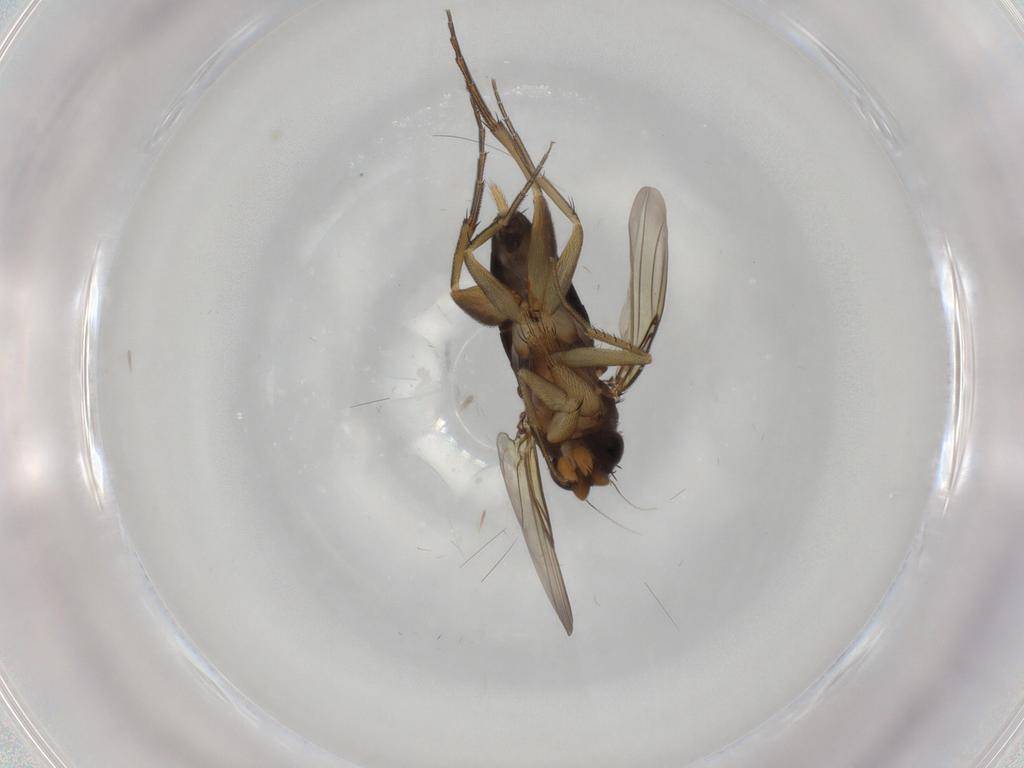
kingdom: Animalia
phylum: Arthropoda
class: Insecta
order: Diptera
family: Phoridae
